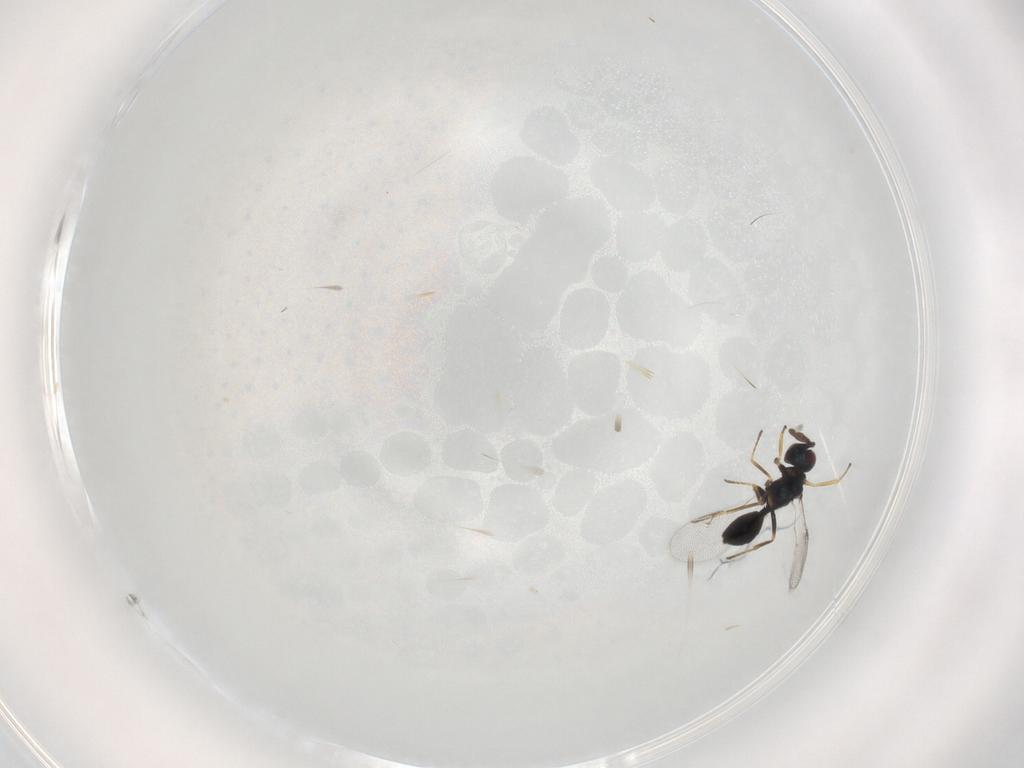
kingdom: Animalia
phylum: Arthropoda
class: Insecta
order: Hymenoptera
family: Chalcidoidea_incertae_sedis
